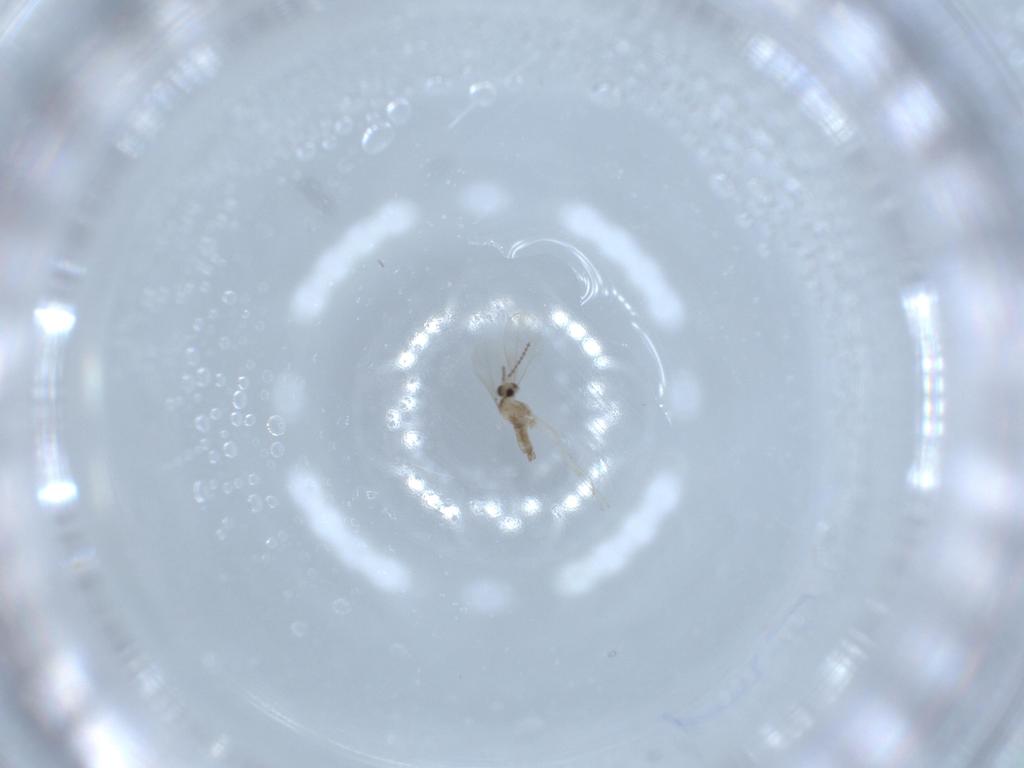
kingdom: Animalia
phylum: Arthropoda
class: Insecta
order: Diptera
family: Cecidomyiidae
